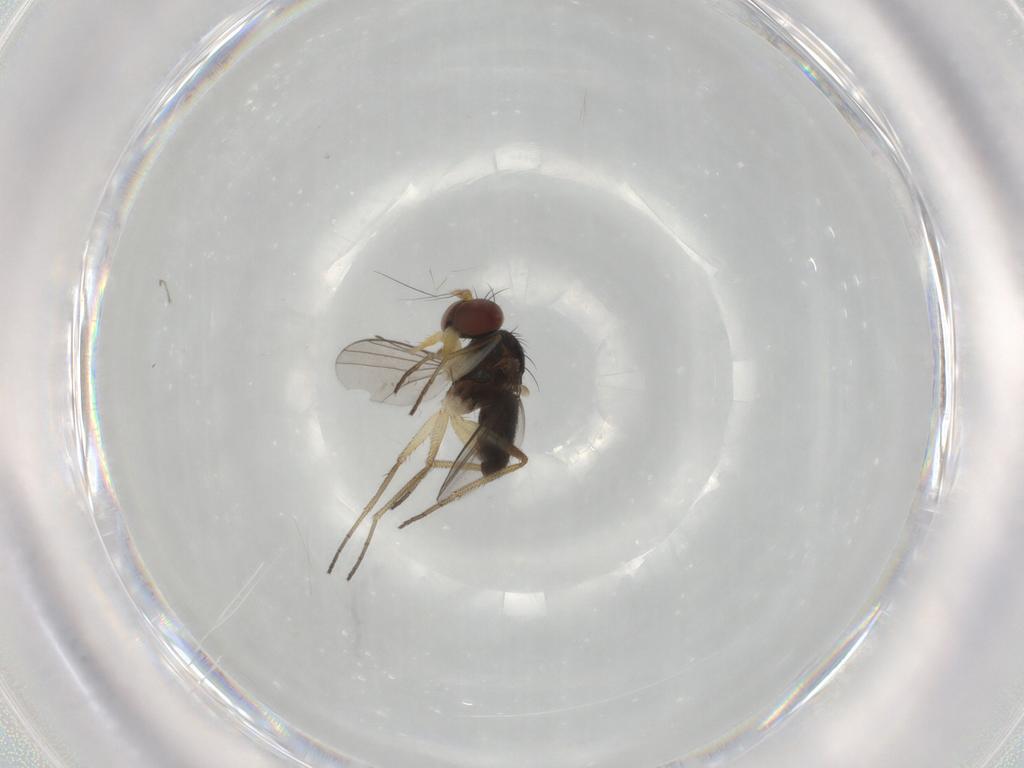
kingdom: Animalia
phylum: Arthropoda
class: Insecta
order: Diptera
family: Dolichopodidae
